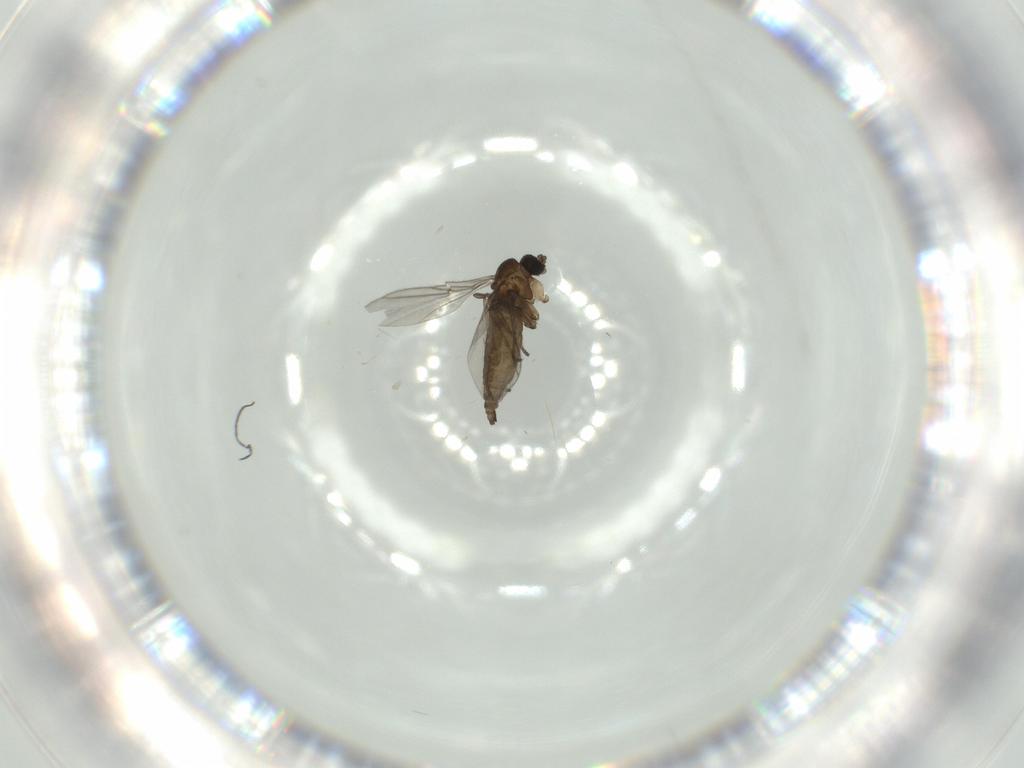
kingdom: Animalia
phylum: Arthropoda
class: Insecta
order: Diptera
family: Sciaridae
